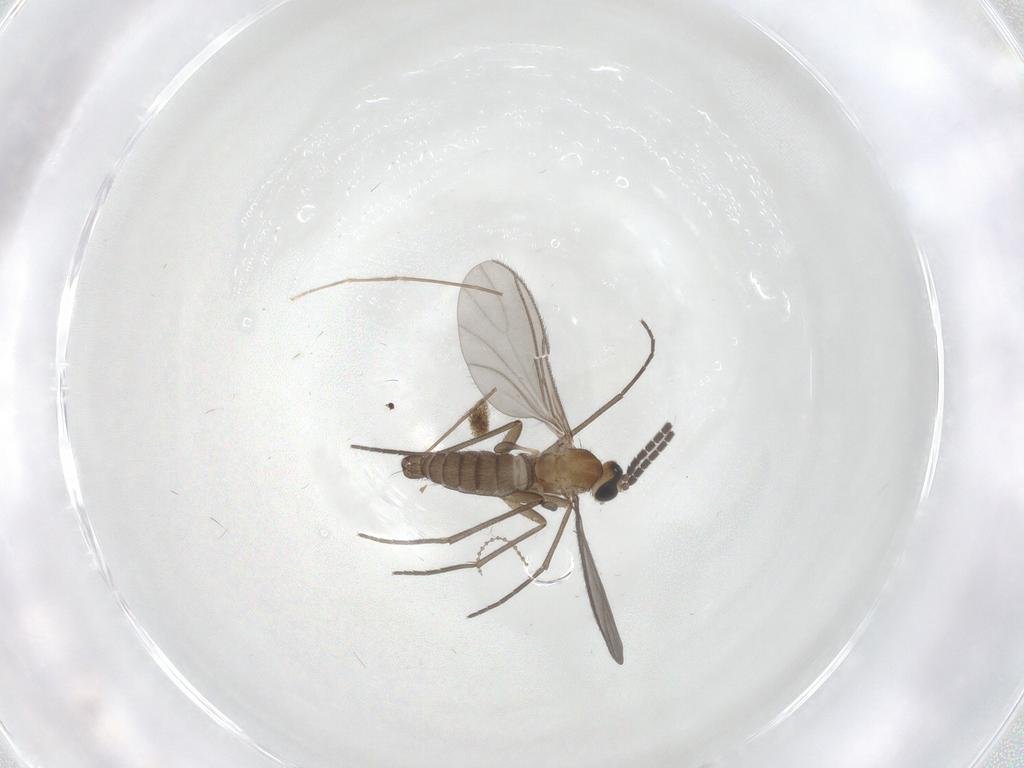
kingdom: Animalia
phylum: Arthropoda
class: Insecta
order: Diptera
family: Sciaridae
